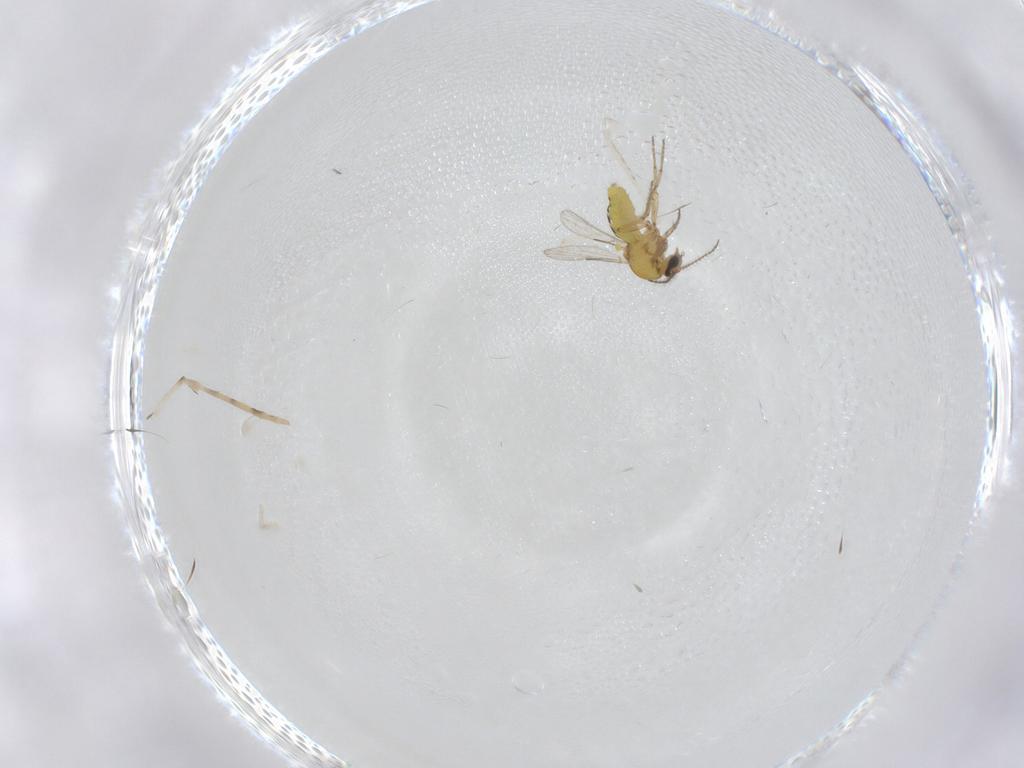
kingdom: Animalia
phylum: Arthropoda
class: Insecta
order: Diptera
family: Ceratopogonidae
